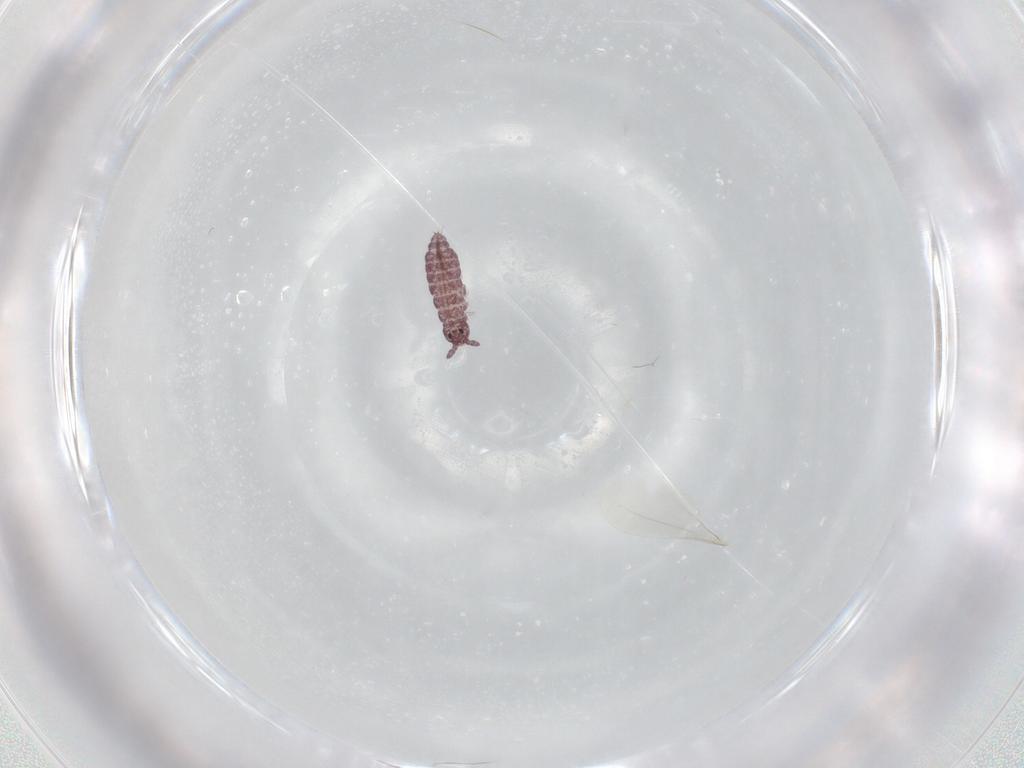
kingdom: Animalia
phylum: Arthropoda
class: Collembola
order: Poduromorpha
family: Hypogastruridae
